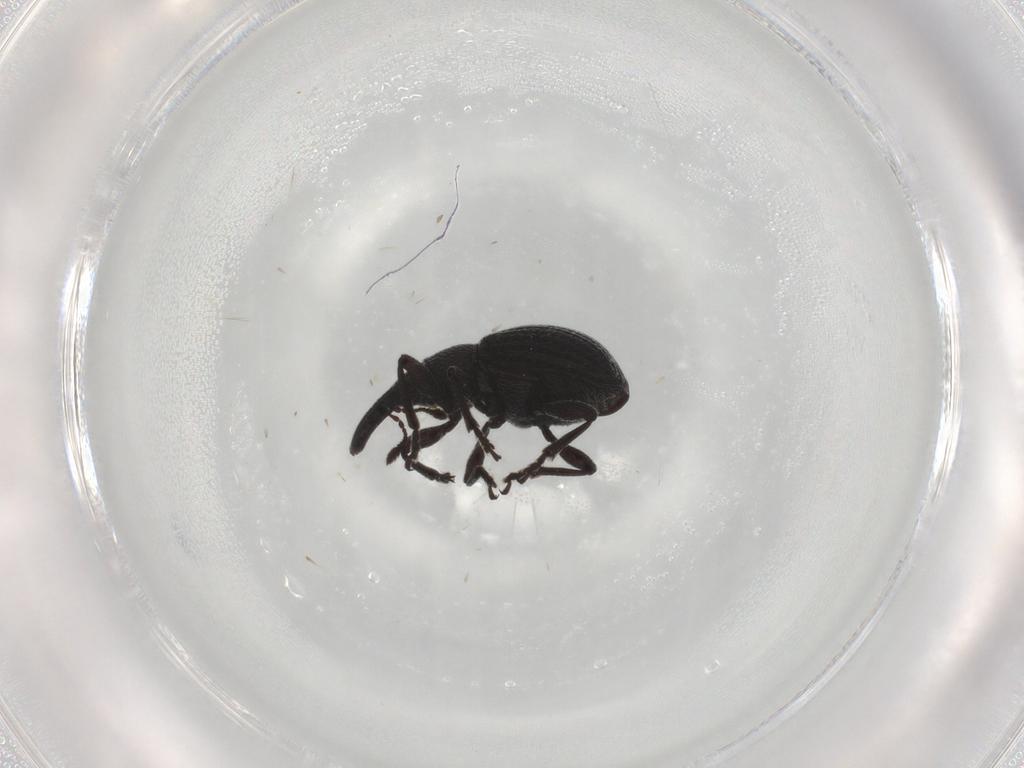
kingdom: Animalia
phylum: Arthropoda
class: Insecta
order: Coleoptera
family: Brentidae
